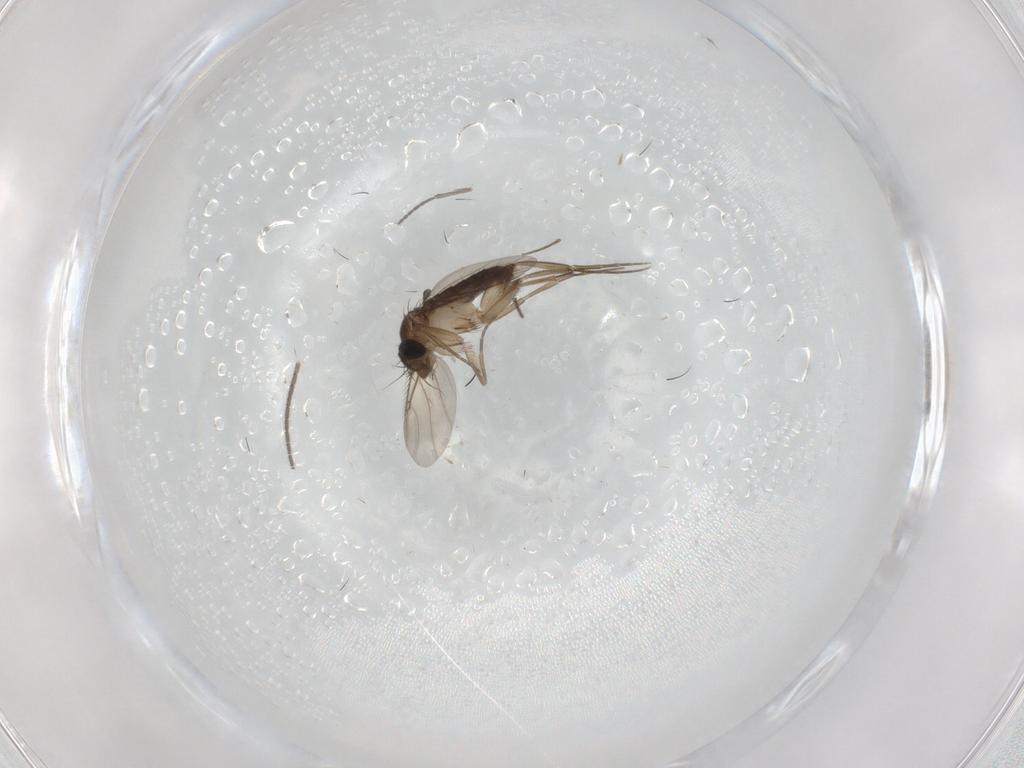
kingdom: Animalia
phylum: Arthropoda
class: Insecta
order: Diptera
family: Phoridae
